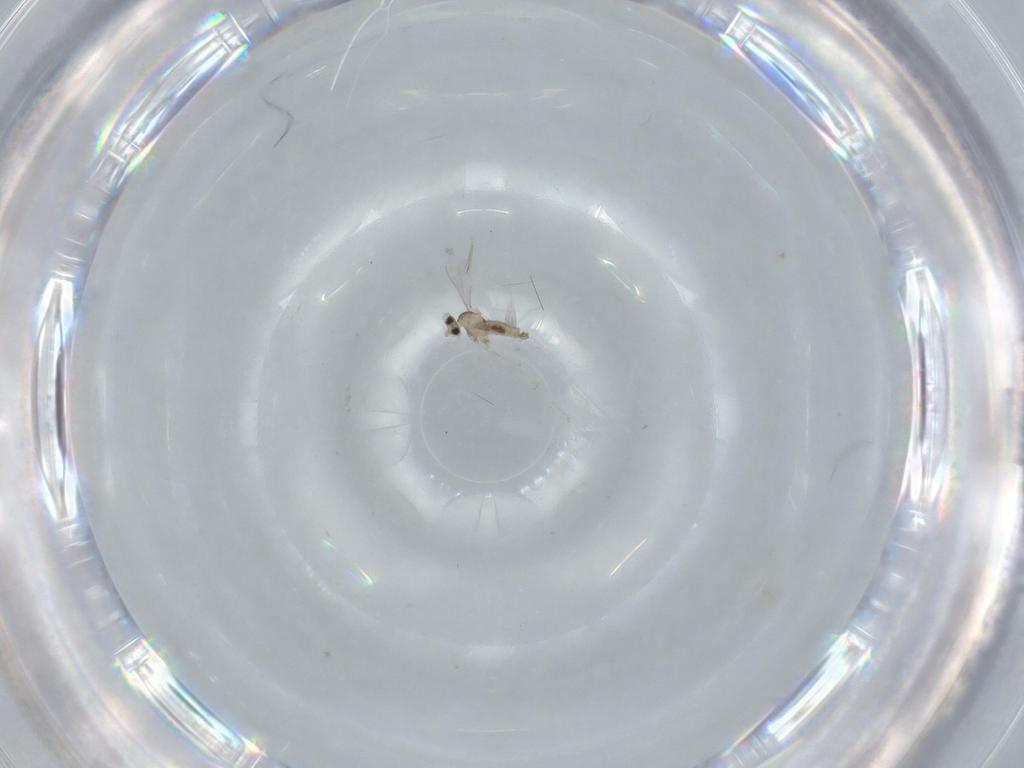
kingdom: Animalia
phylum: Arthropoda
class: Insecta
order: Diptera
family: Cecidomyiidae
